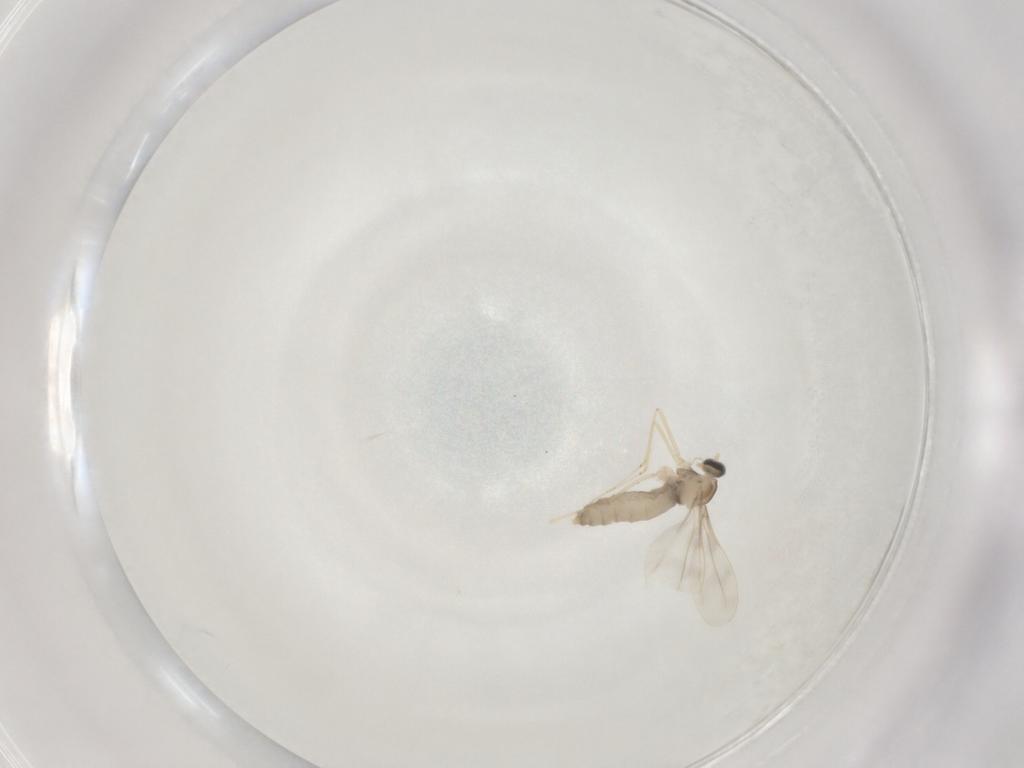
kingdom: Animalia
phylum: Arthropoda
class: Insecta
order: Diptera
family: Cecidomyiidae
